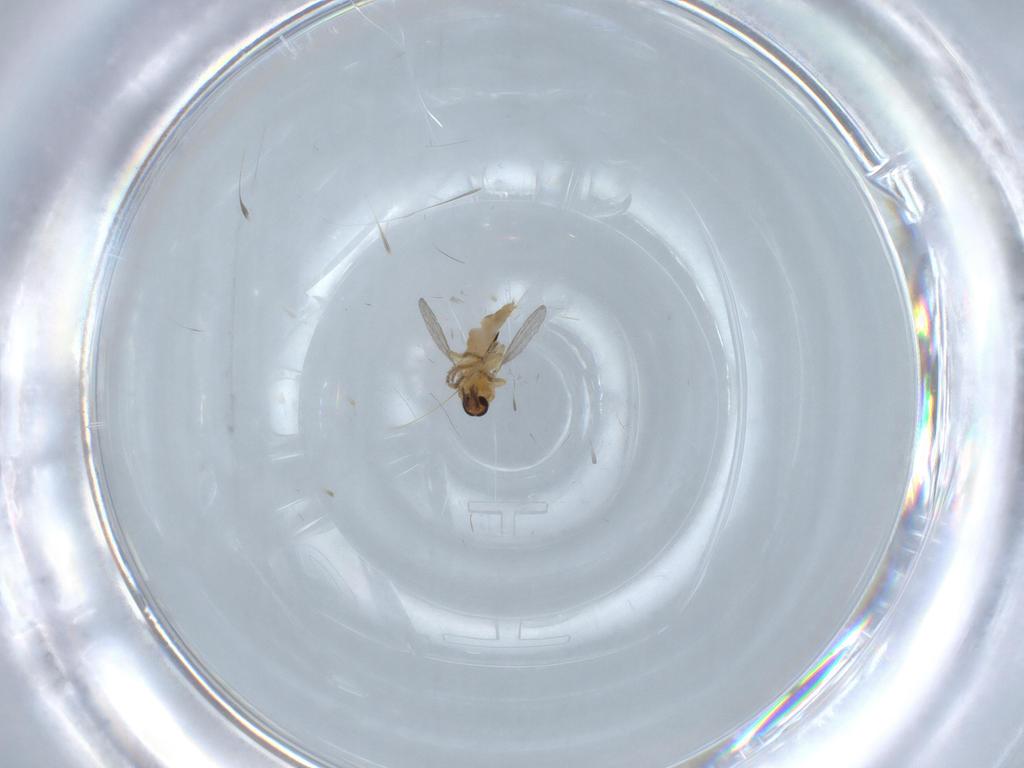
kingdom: Animalia
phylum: Arthropoda
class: Insecta
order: Diptera
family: Ceratopogonidae
